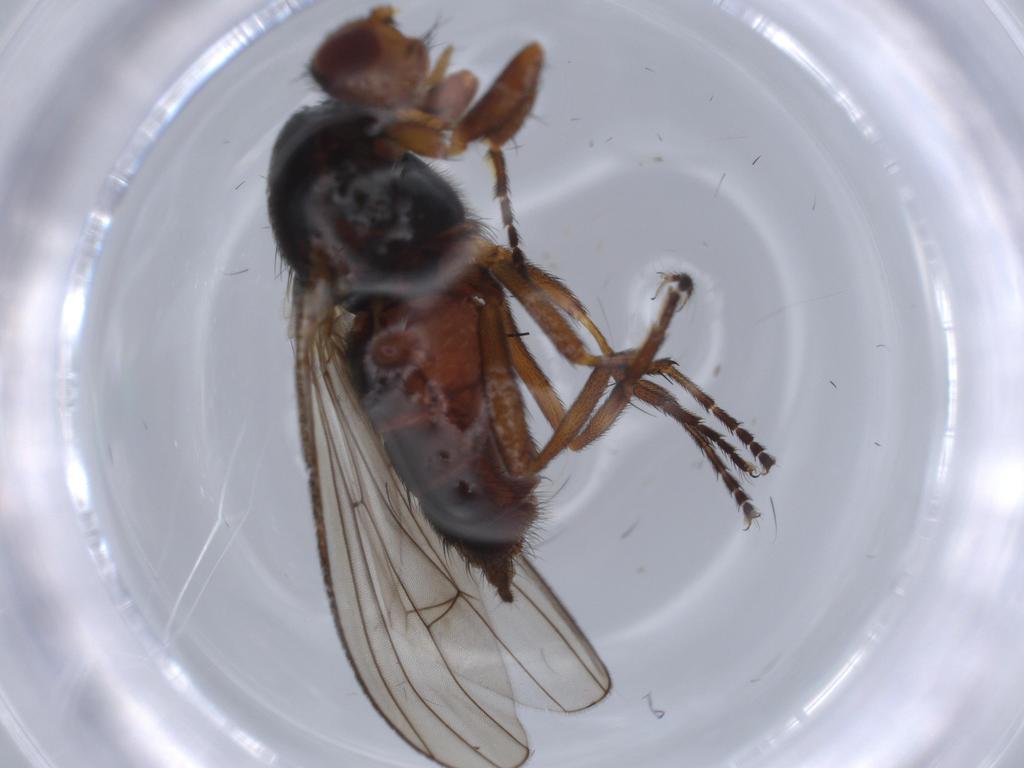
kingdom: Animalia
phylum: Arthropoda
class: Insecta
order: Diptera
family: Heleomyzidae
